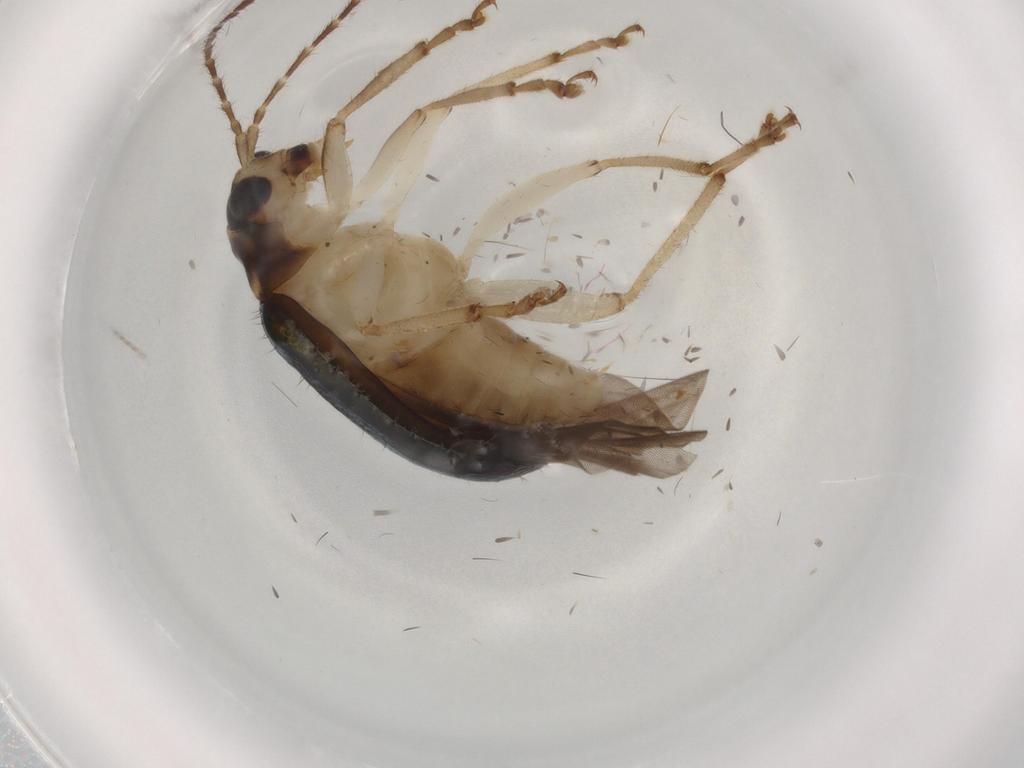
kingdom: Animalia
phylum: Arthropoda
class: Insecta
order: Coleoptera
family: Chrysomelidae
